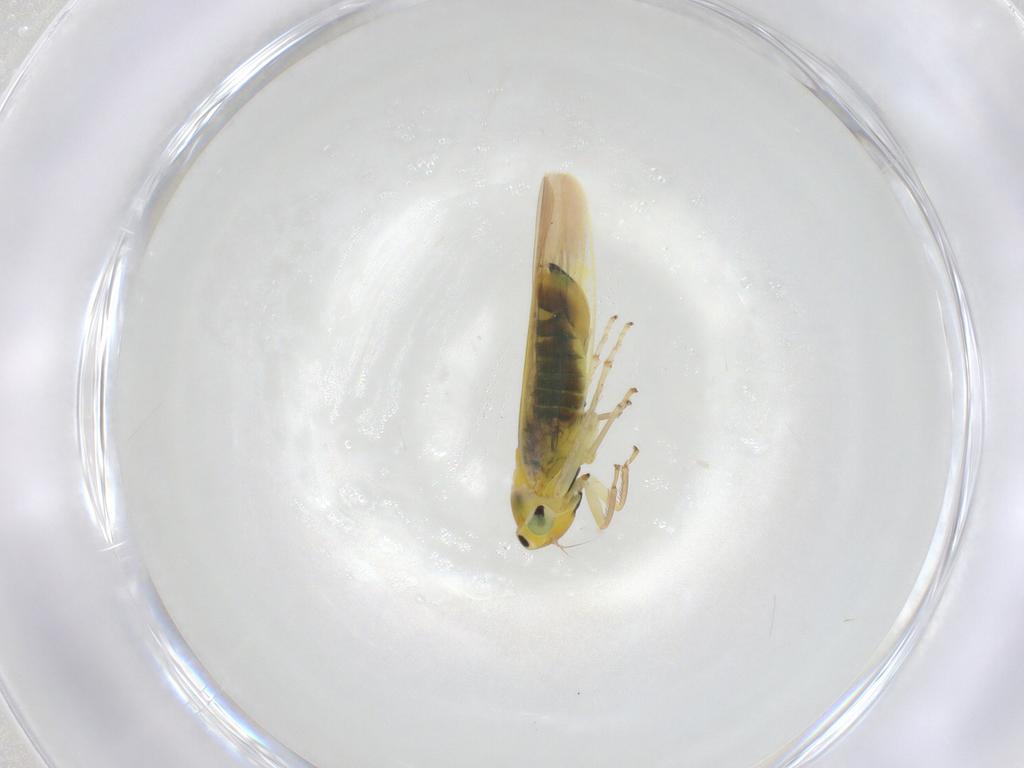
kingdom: Animalia
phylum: Arthropoda
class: Insecta
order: Hemiptera
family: Cicadellidae
